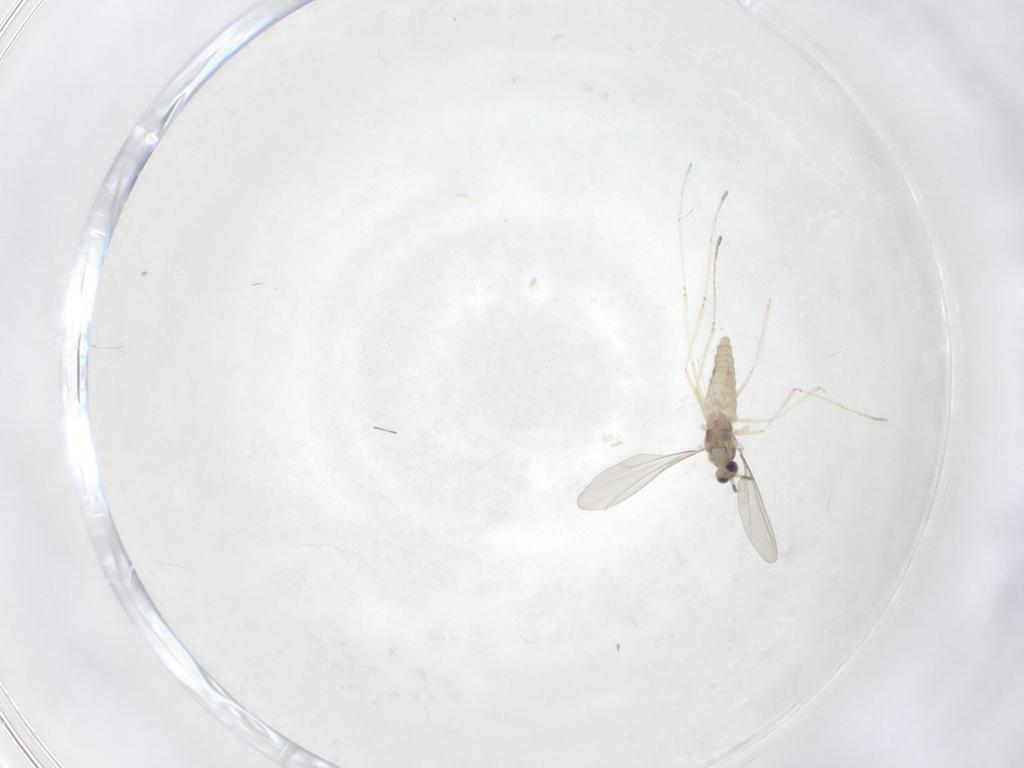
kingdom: Animalia
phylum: Arthropoda
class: Insecta
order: Diptera
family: Cecidomyiidae
